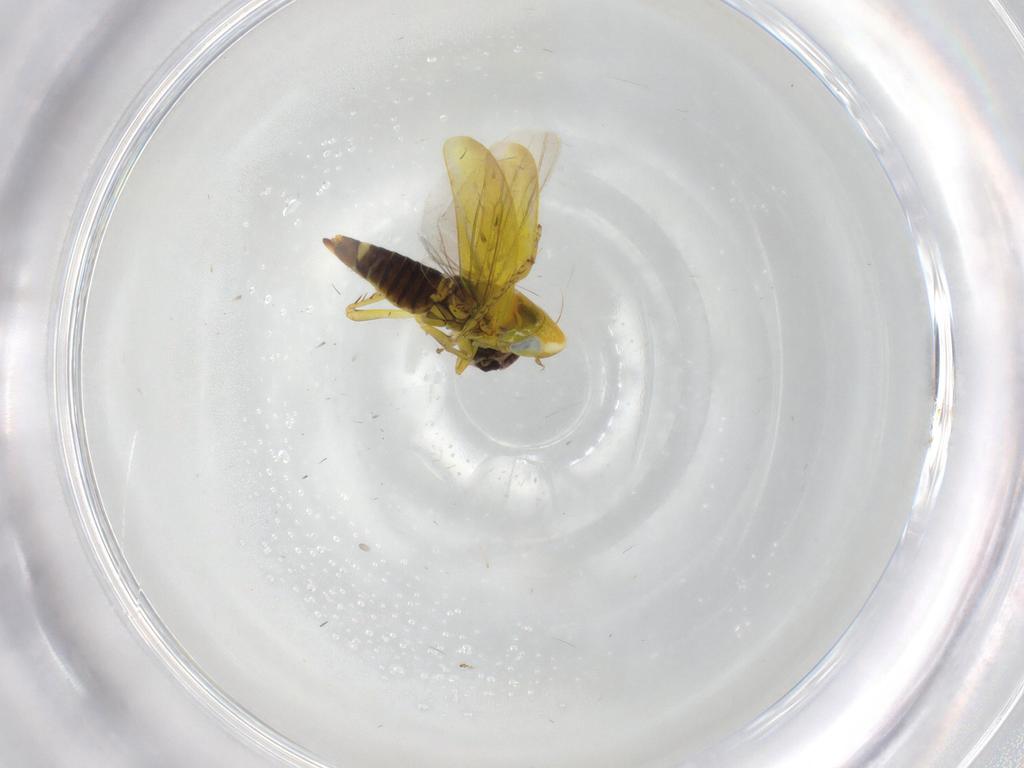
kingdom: Animalia
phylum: Arthropoda
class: Insecta
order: Hemiptera
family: Cicadellidae
